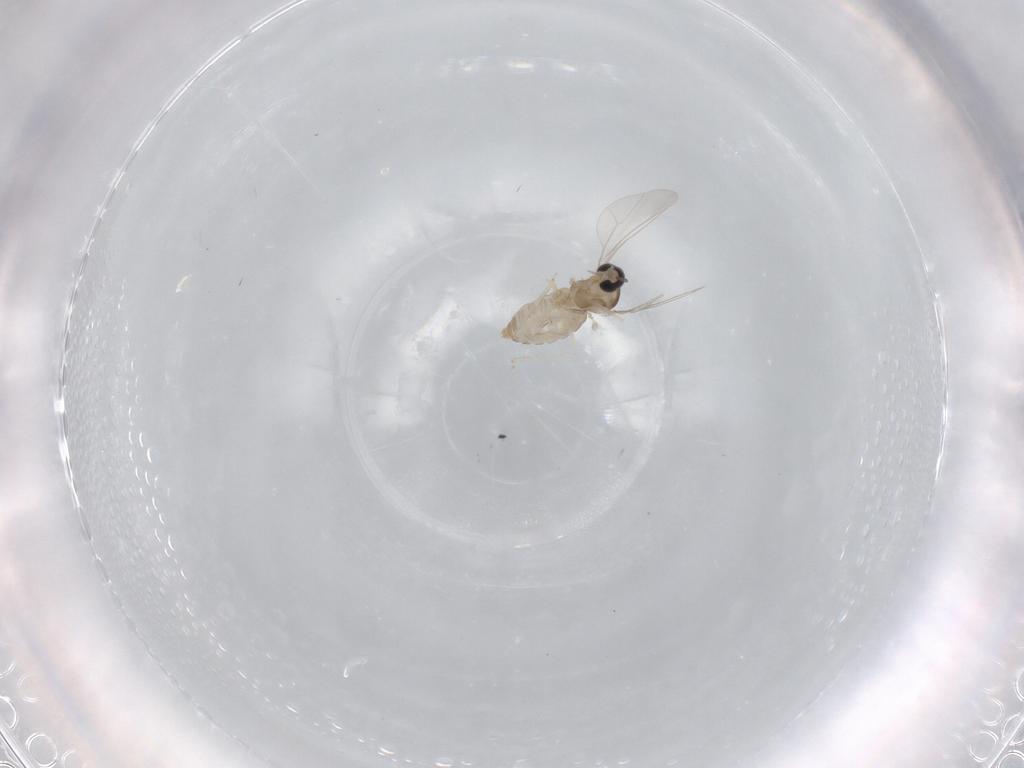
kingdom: Animalia
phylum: Arthropoda
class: Insecta
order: Diptera
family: Cecidomyiidae
